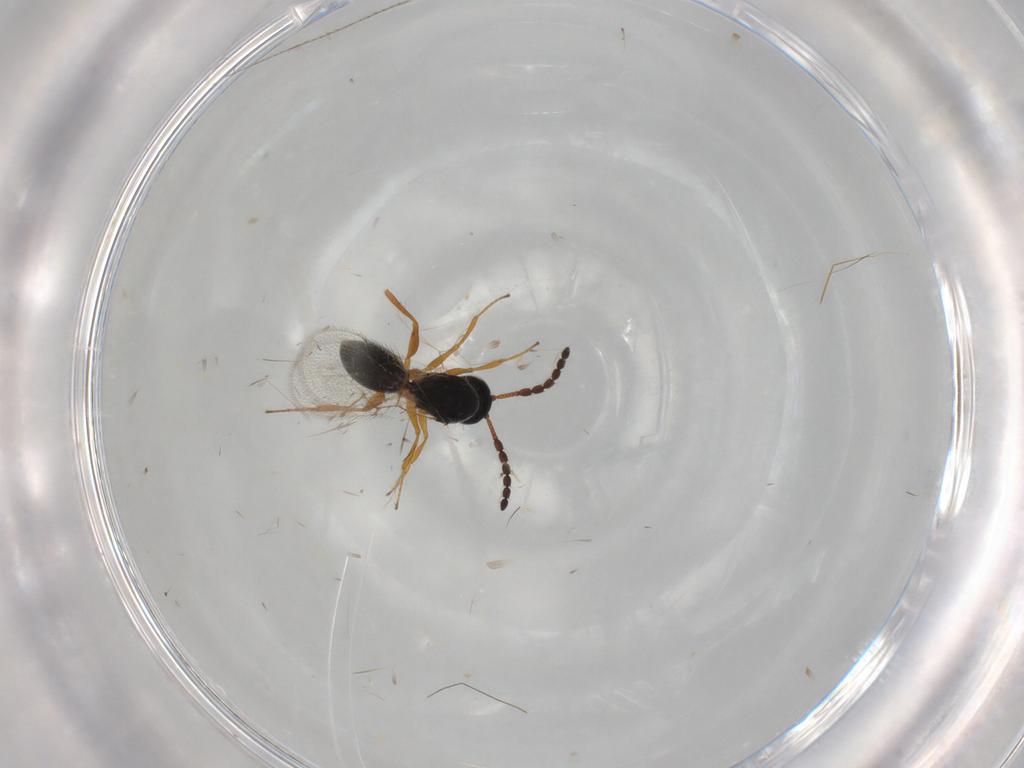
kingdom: Animalia
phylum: Arthropoda
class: Insecta
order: Hymenoptera
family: Figitidae
